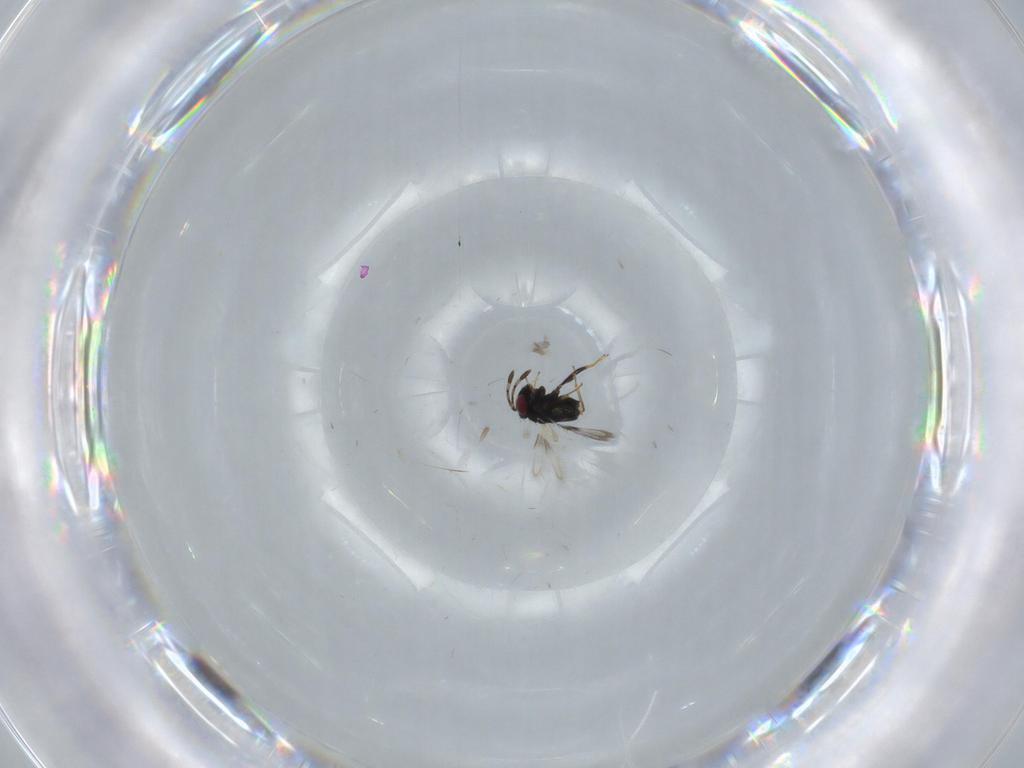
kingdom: Animalia
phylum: Arthropoda
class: Insecta
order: Hymenoptera
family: Azotidae
